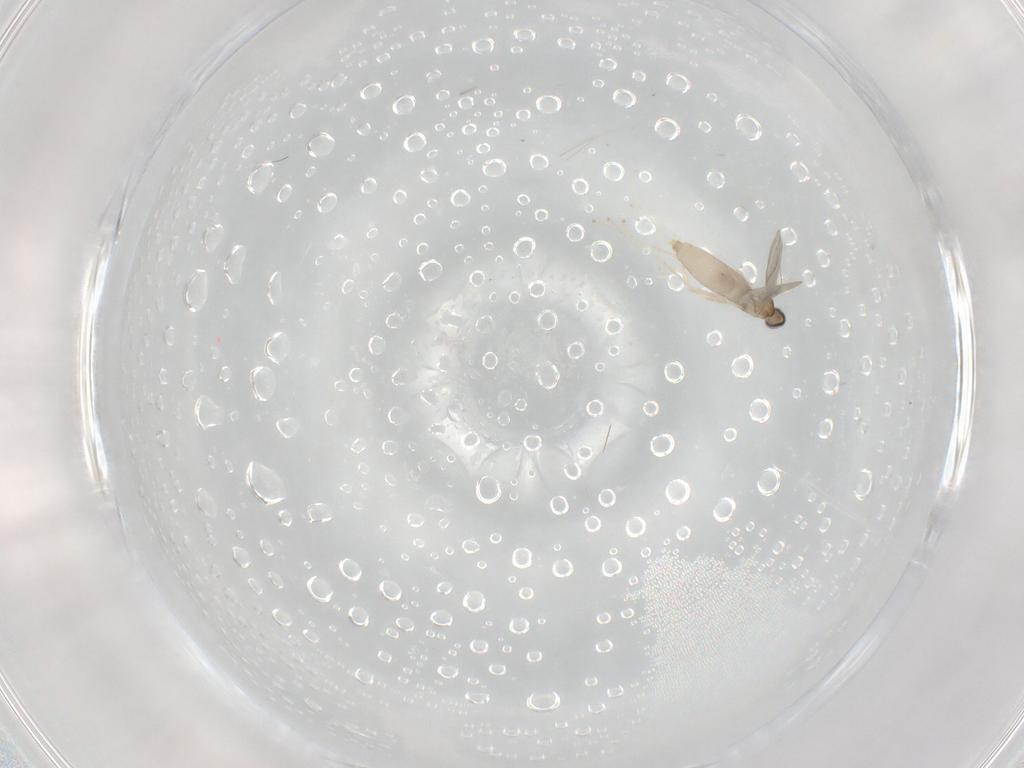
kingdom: Animalia
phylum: Arthropoda
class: Insecta
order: Diptera
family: Cecidomyiidae
